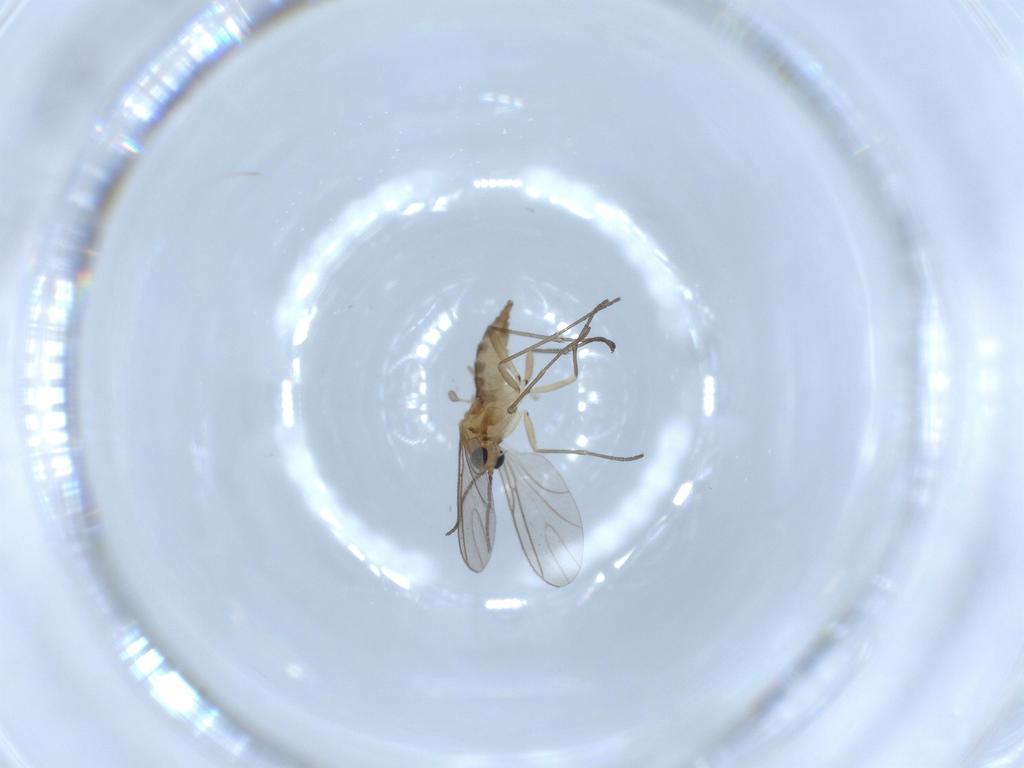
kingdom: Animalia
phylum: Arthropoda
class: Insecta
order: Diptera
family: Sciaridae
